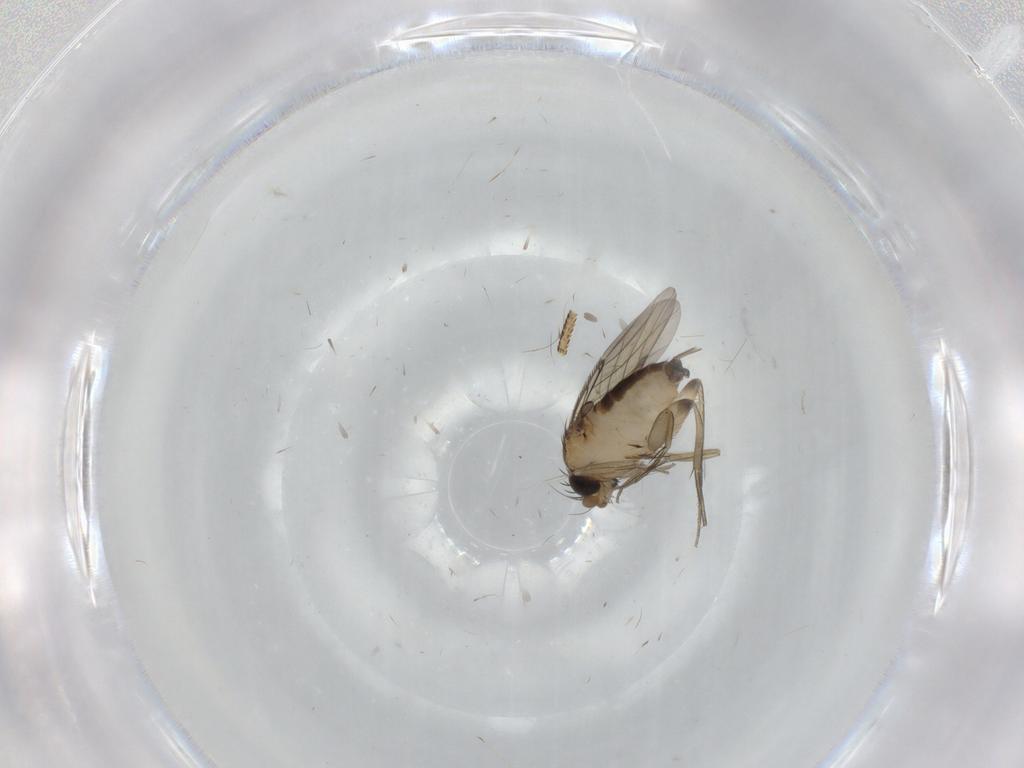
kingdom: Animalia
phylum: Arthropoda
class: Insecta
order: Diptera
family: Phoridae
